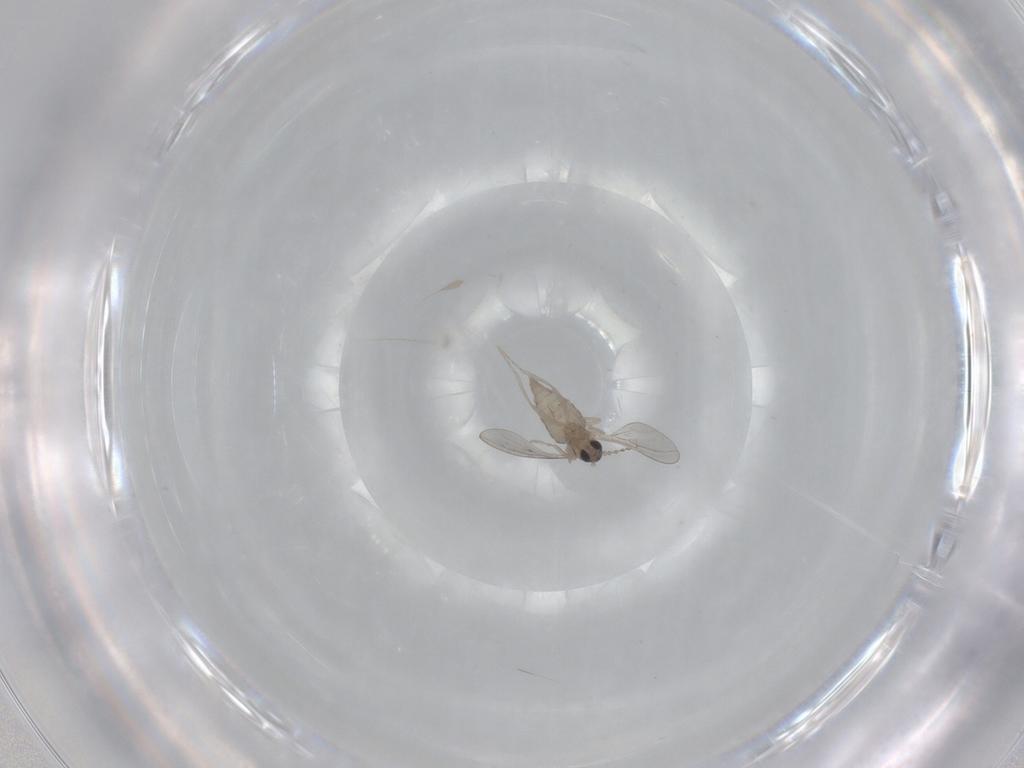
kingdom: Animalia
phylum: Arthropoda
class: Insecta
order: Diptera
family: Cecidomyiidae
